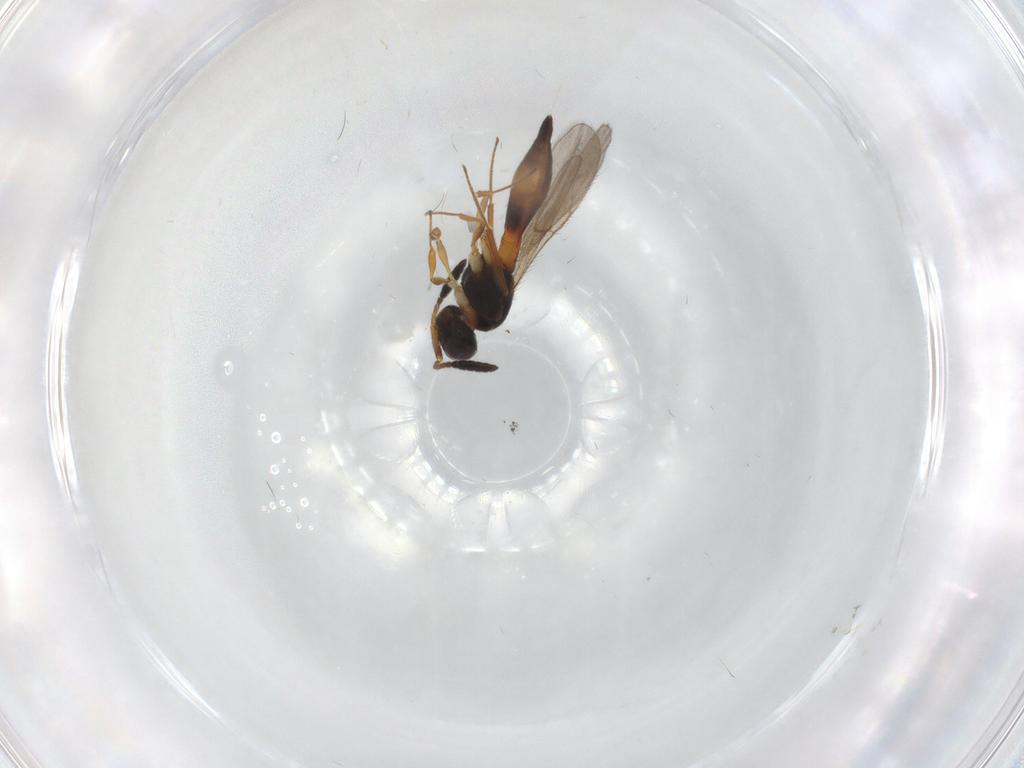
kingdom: Animalia
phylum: Arthropoda
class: Insecta
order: Hymenoptera
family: Scelionidae
